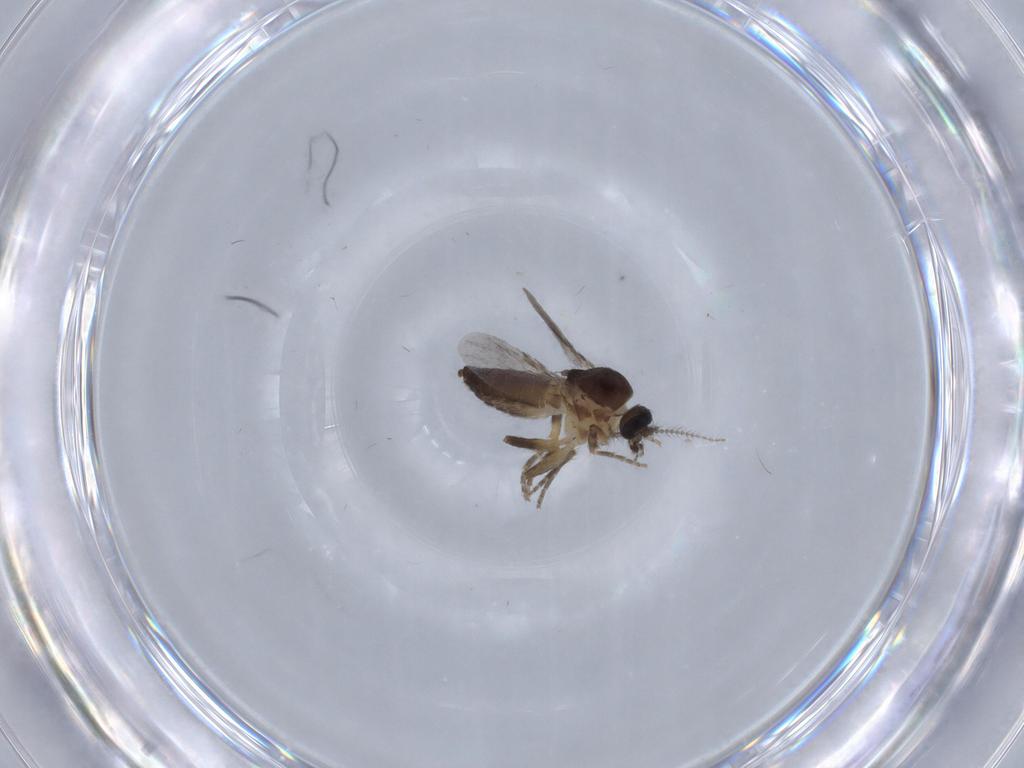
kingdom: Animalia
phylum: Arthropoda
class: Insecta
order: Diptera
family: Ceratopogonidae
